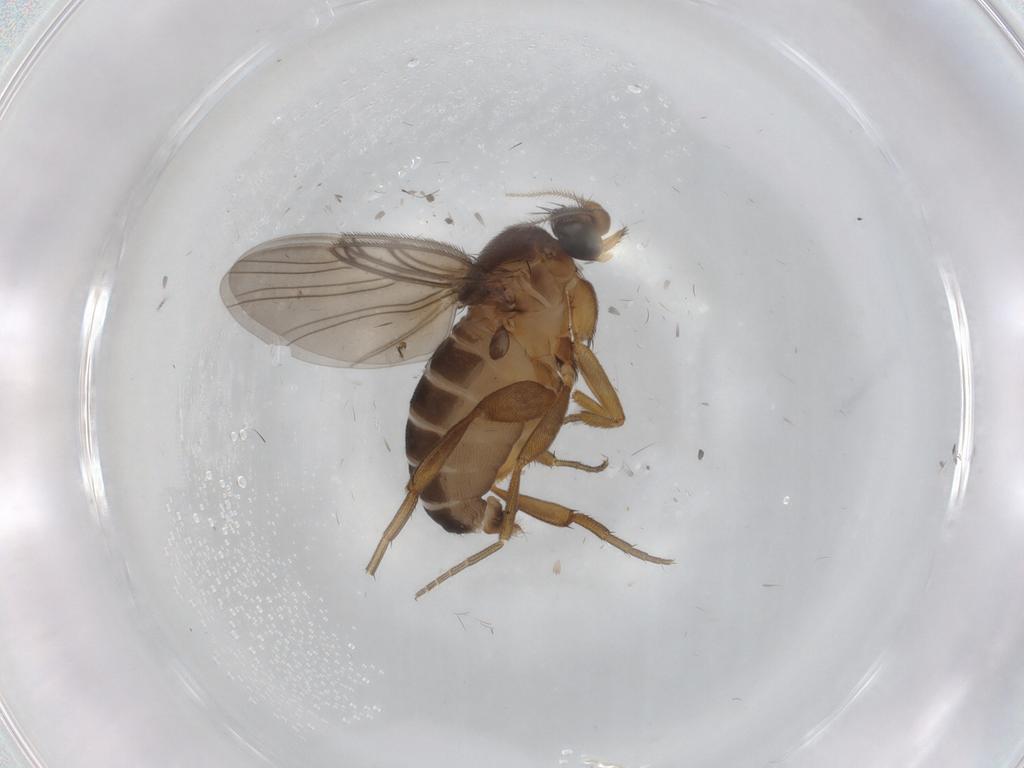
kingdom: Animalia
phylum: Arthropoda
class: Insecta
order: Diptera
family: Phoridae
